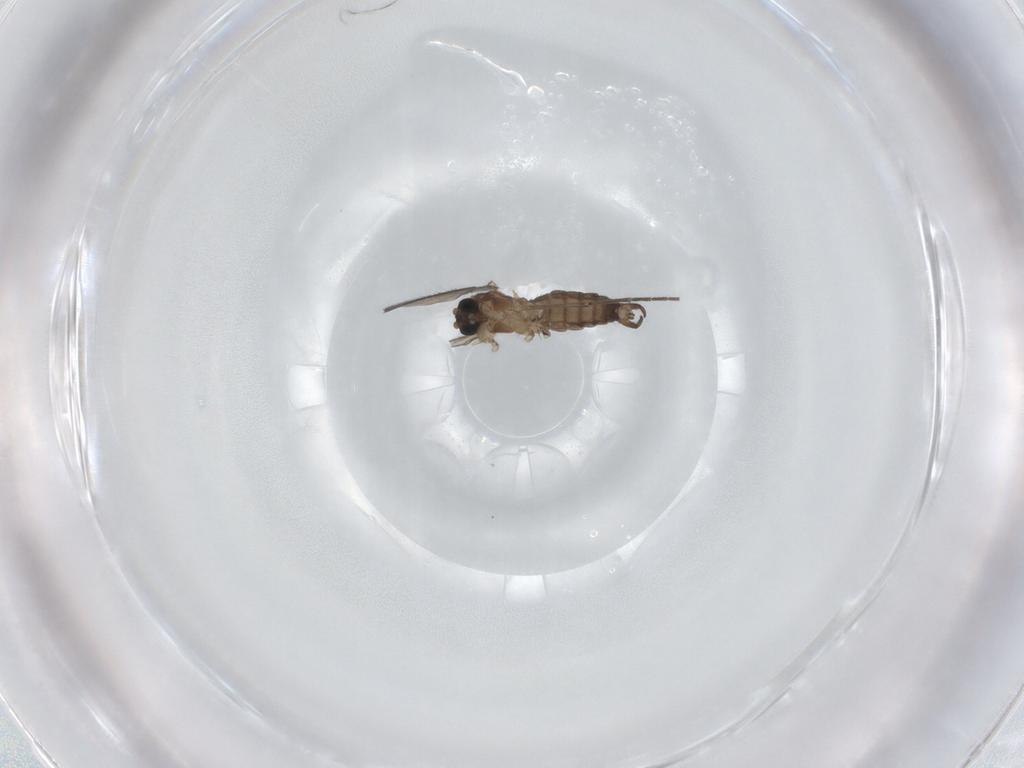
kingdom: Animalia
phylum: Arthropoda
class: Insecta
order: Diptera
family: Sciaridae
